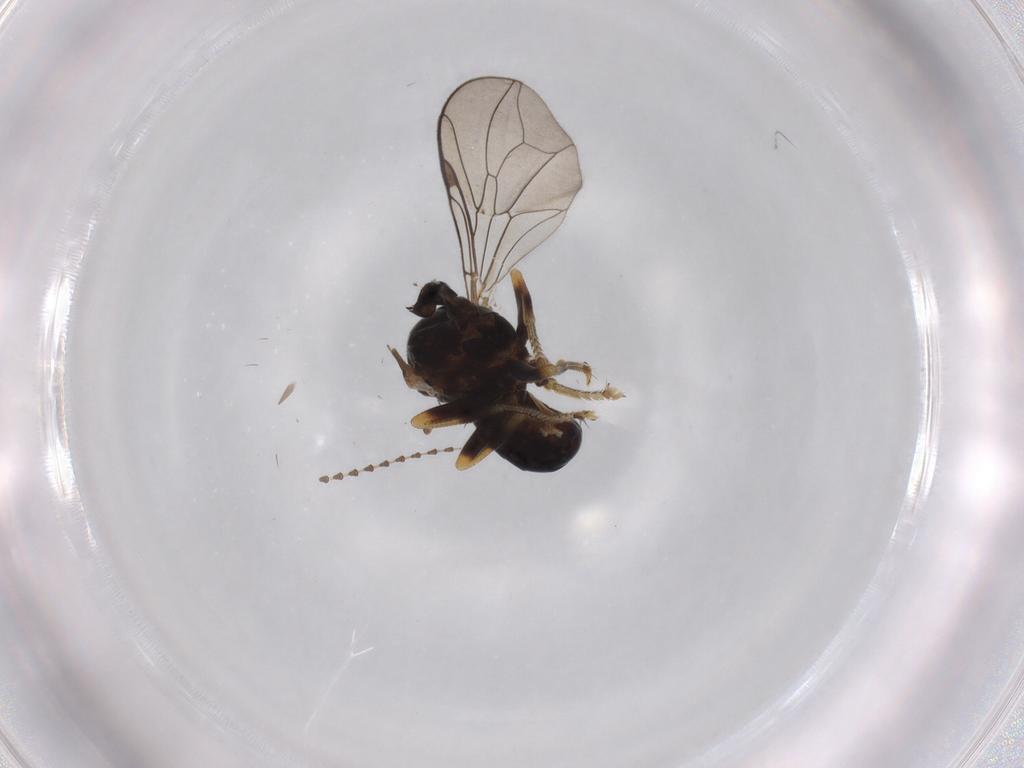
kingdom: Animalia
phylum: Arthropoda
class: Insecta
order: Diptera
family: Pipunculidae
